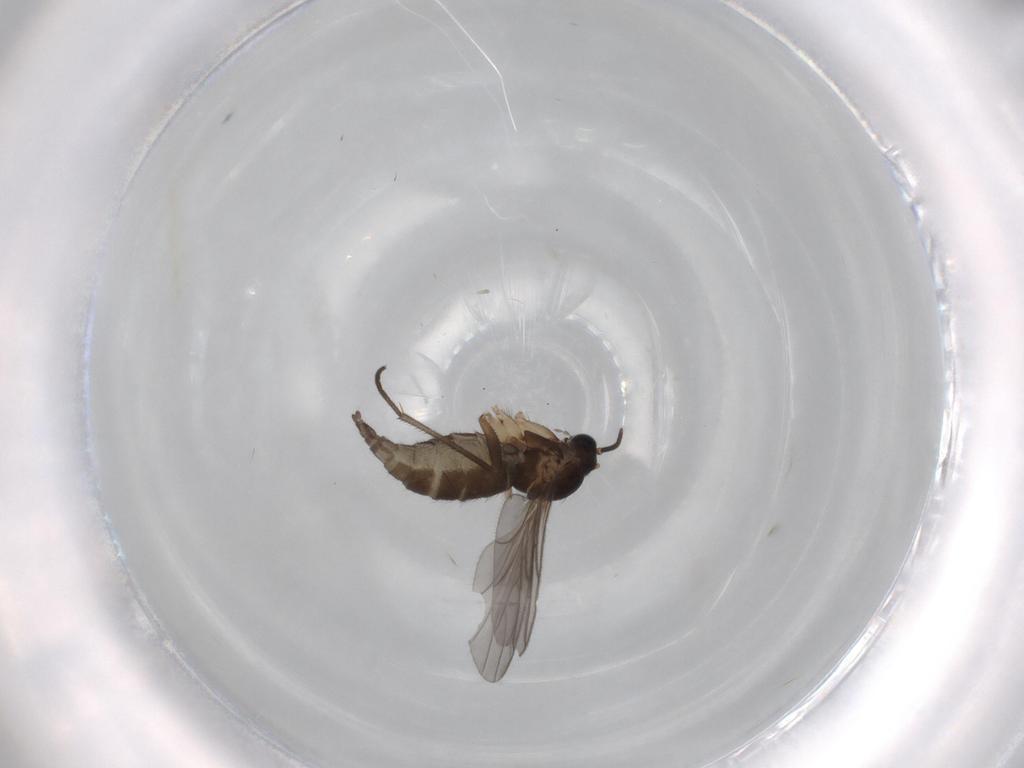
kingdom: Animalia
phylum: Arthropoda
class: Insecta
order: Diptera
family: Sciaridae
